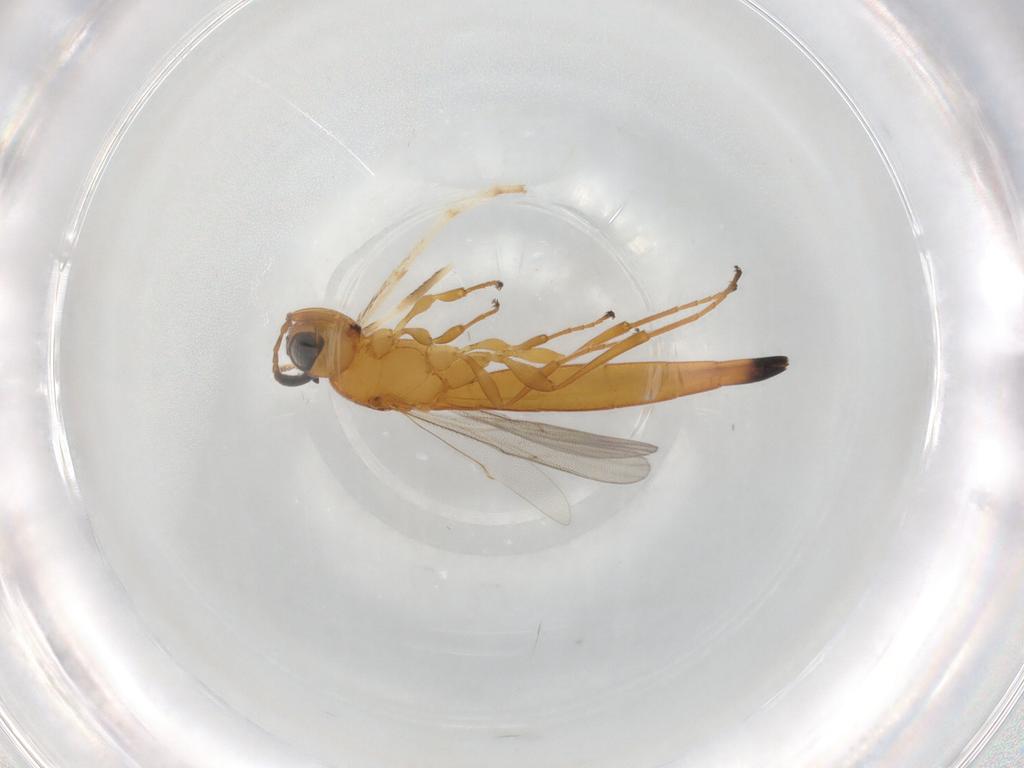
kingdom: Animalia
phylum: Arthropoda
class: Insecta
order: Hymenoptera
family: Scelionidae
